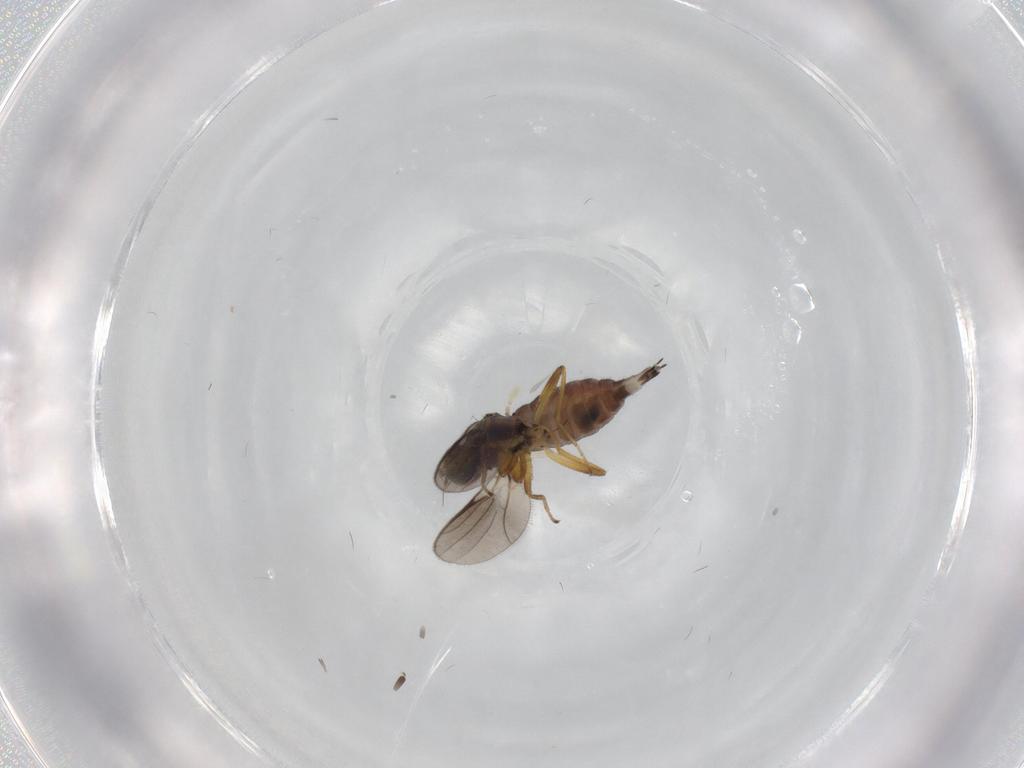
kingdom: Animalia
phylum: Arthropoda
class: Insecta
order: Diptera
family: Hybotidae
